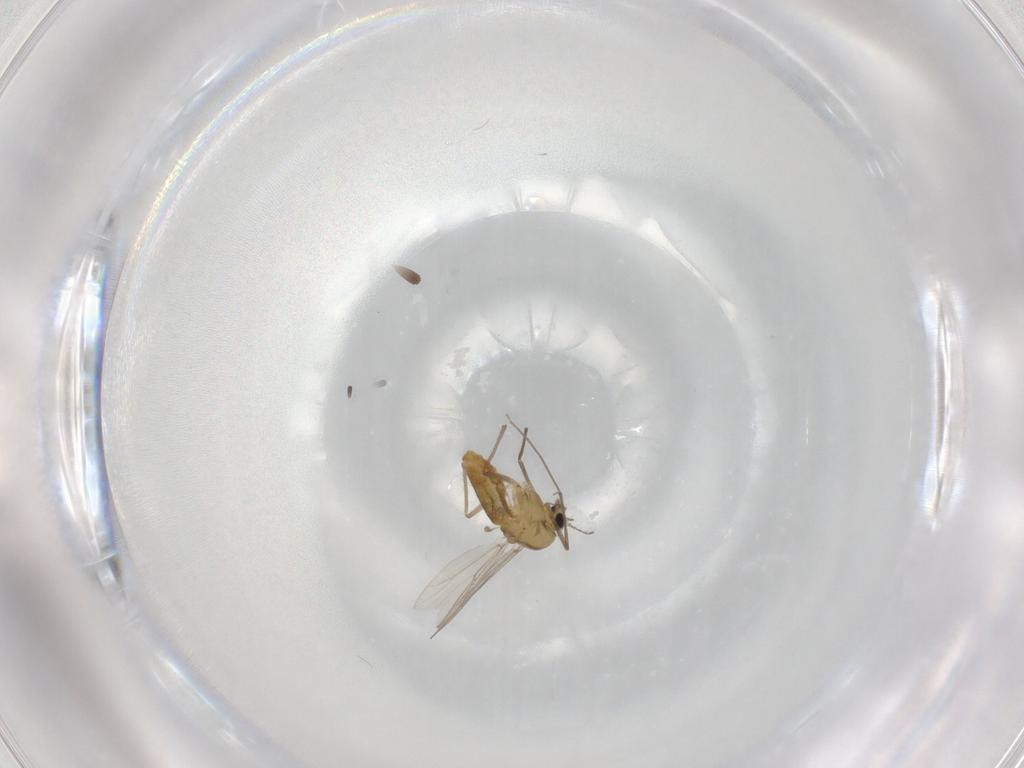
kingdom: Animalia
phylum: Arthropoda
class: Insecta
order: Diptera
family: Chironomidae
